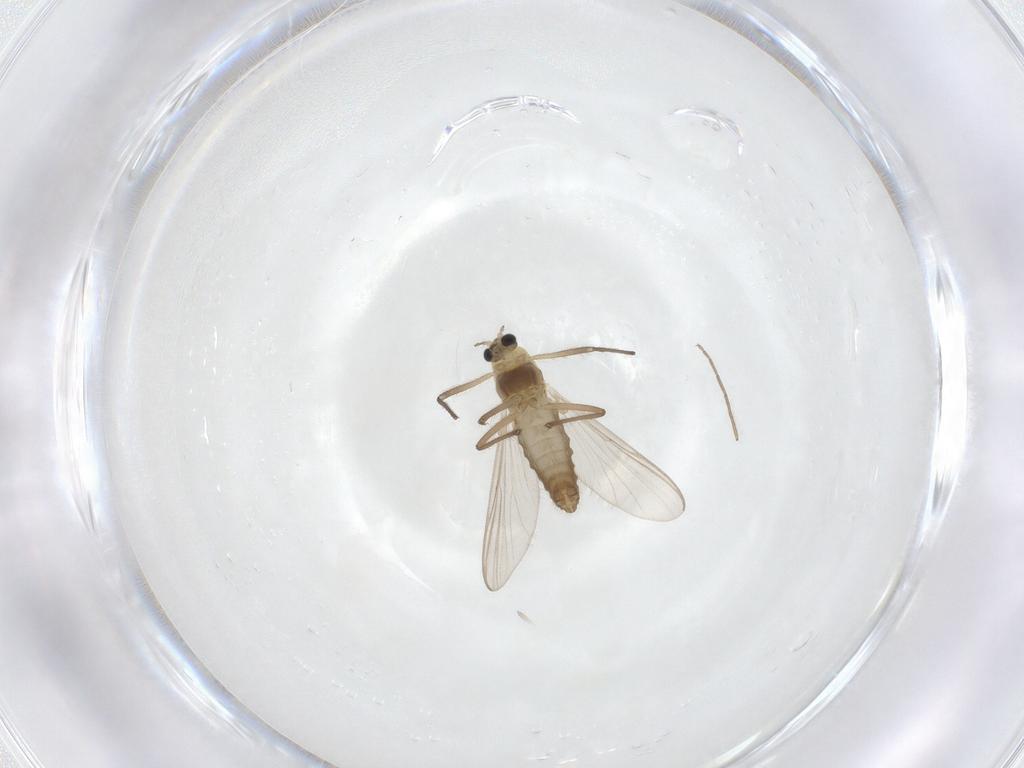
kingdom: Animalia
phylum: Arthropoda
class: Insecta
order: Diptera
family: Chironomidae
